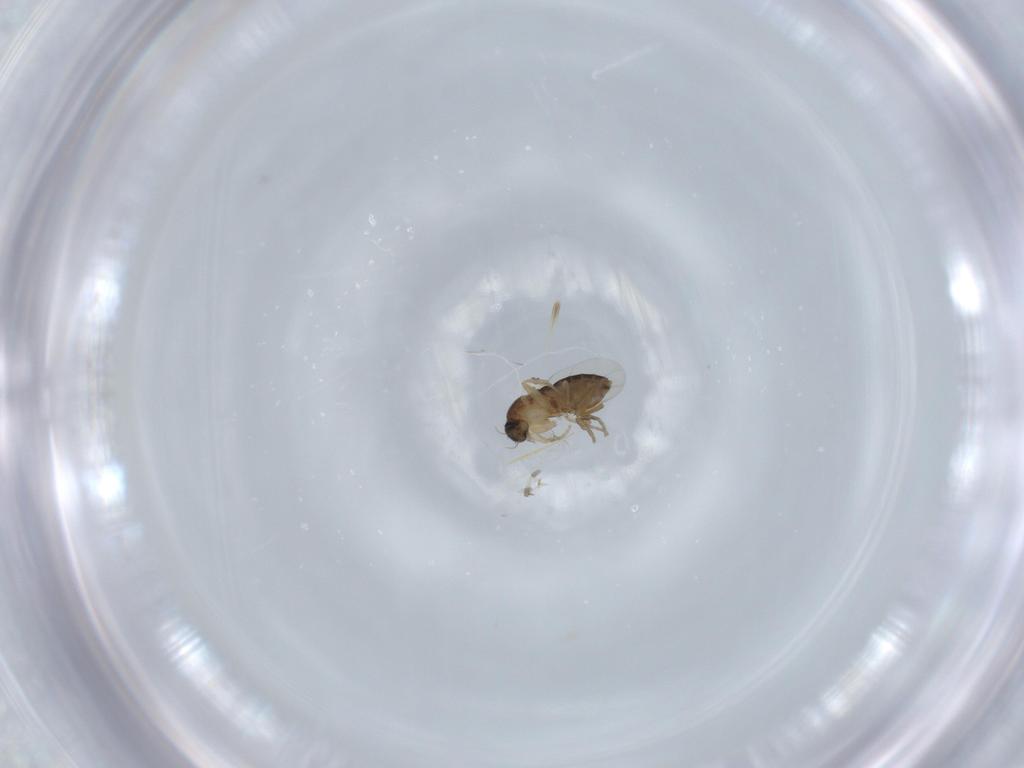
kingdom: Animalia
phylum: Arthropoda
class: Insecta
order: Diptera
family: Phoridae
